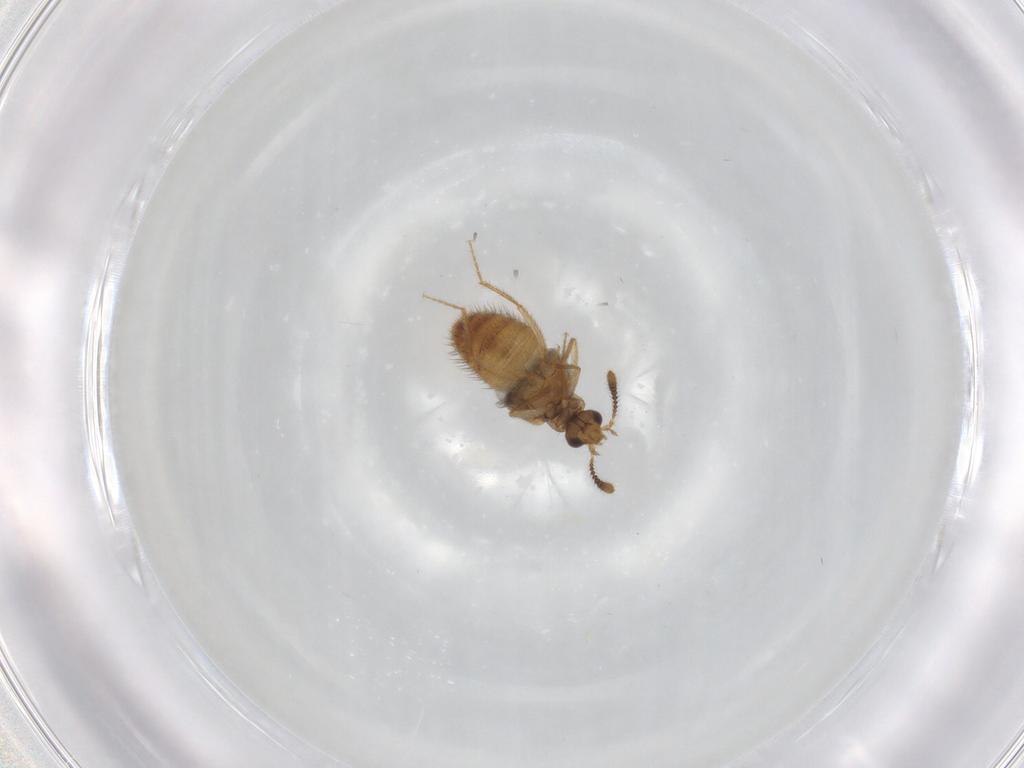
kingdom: Animalia
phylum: Arthropoda
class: Insecta
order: Coleoptera
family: Staphylinidae
